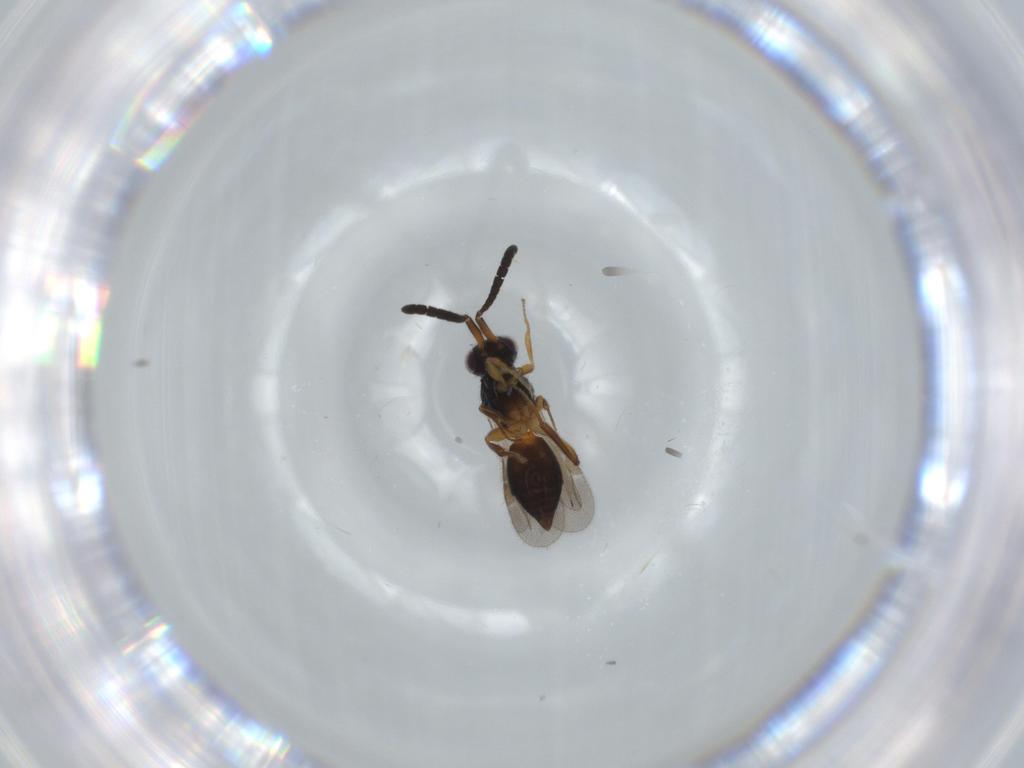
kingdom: Animalia
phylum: Arthropoda
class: Insecta
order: Hymenoptera
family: Megaspilidae
